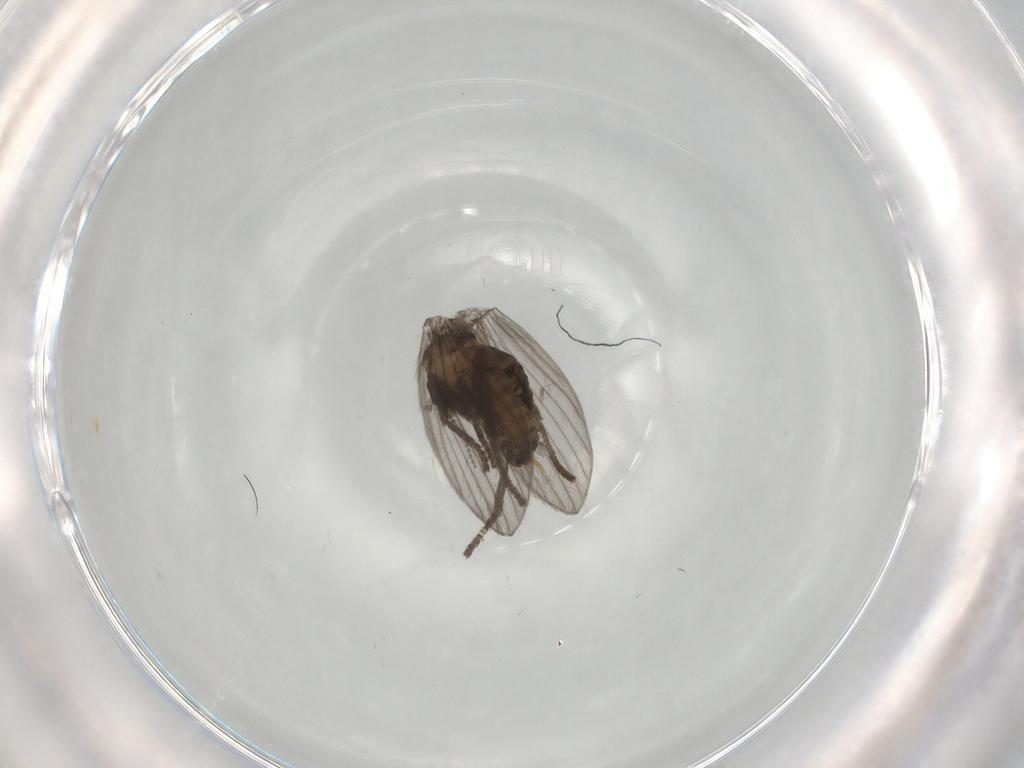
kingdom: Animalia
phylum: Arthropoda
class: Insecta
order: Diptera
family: Psychodidae
